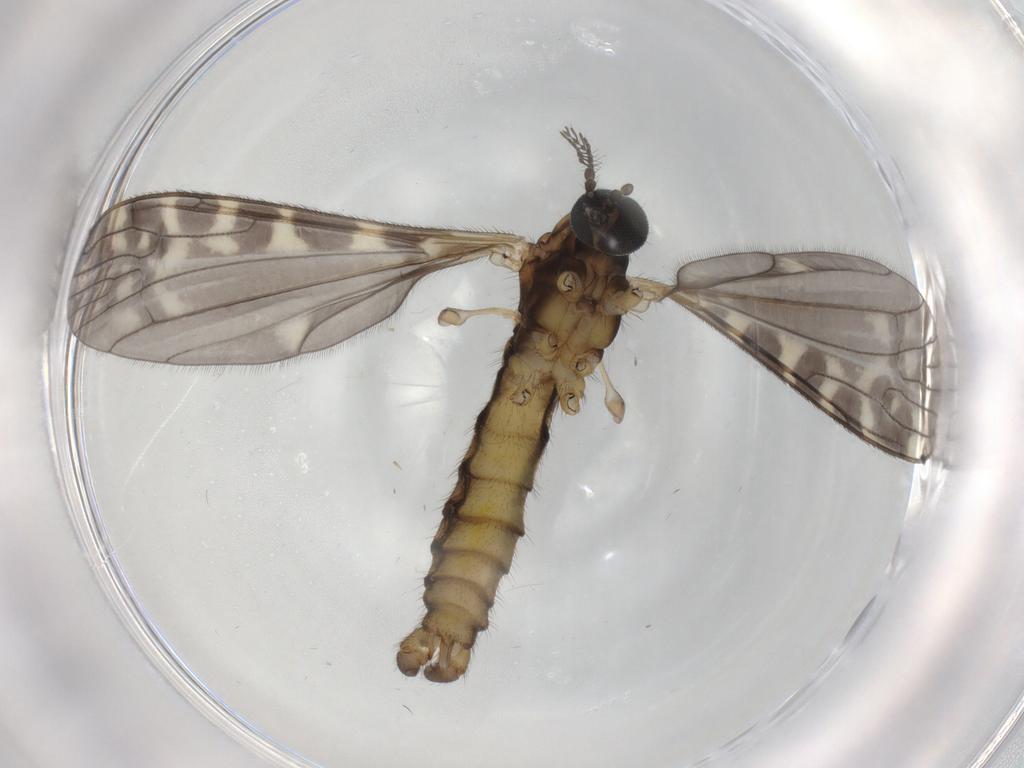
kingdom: Animalia
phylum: Arthropoda
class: Insecta
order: Diptera
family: Limoniidae
